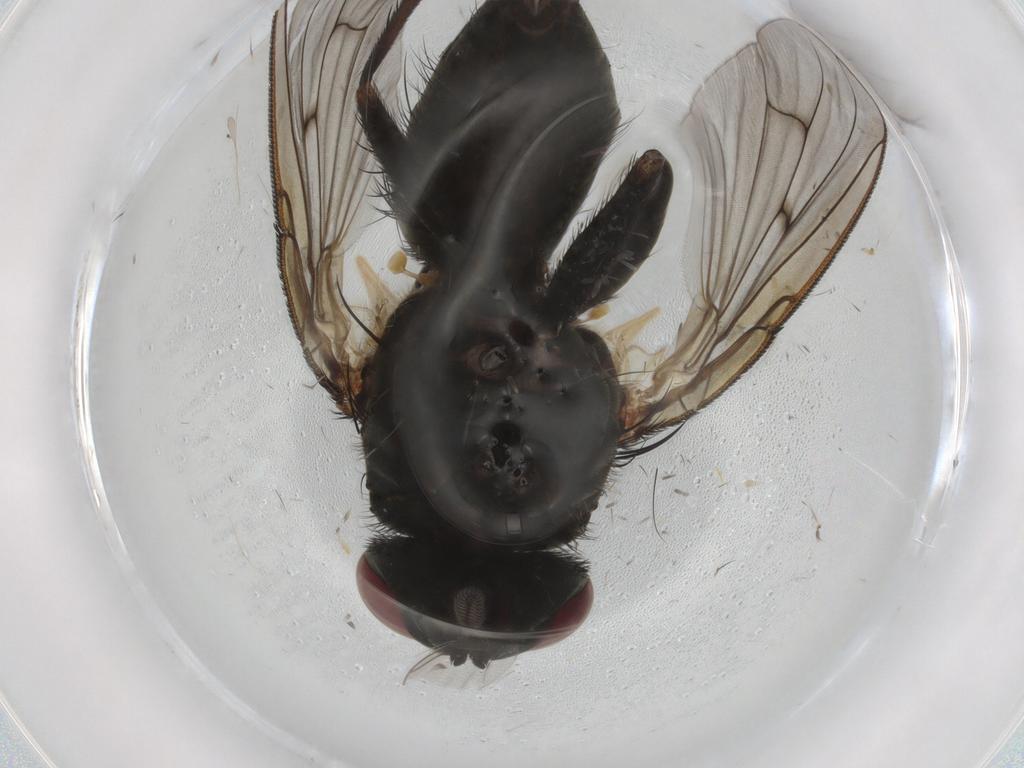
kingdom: Animalia
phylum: Arthropoda
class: Insecta
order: Diptera
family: Muscidae
